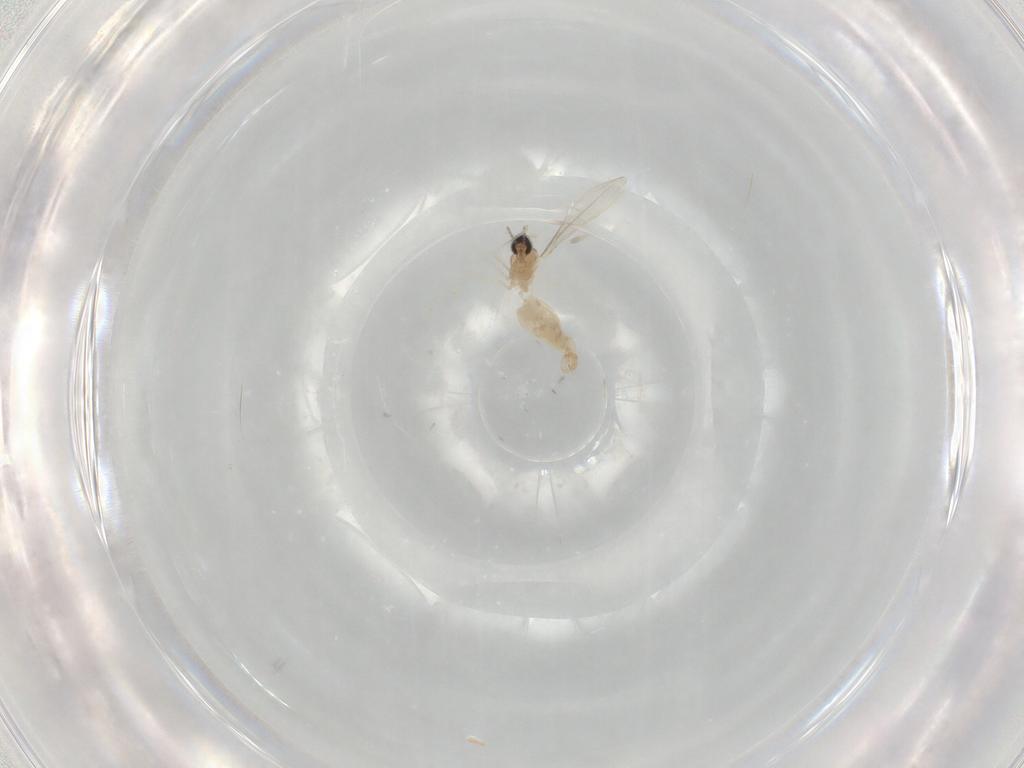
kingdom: Animalia
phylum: Arthropoda
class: Insecta
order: Diptera
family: Cecidomyiidae
